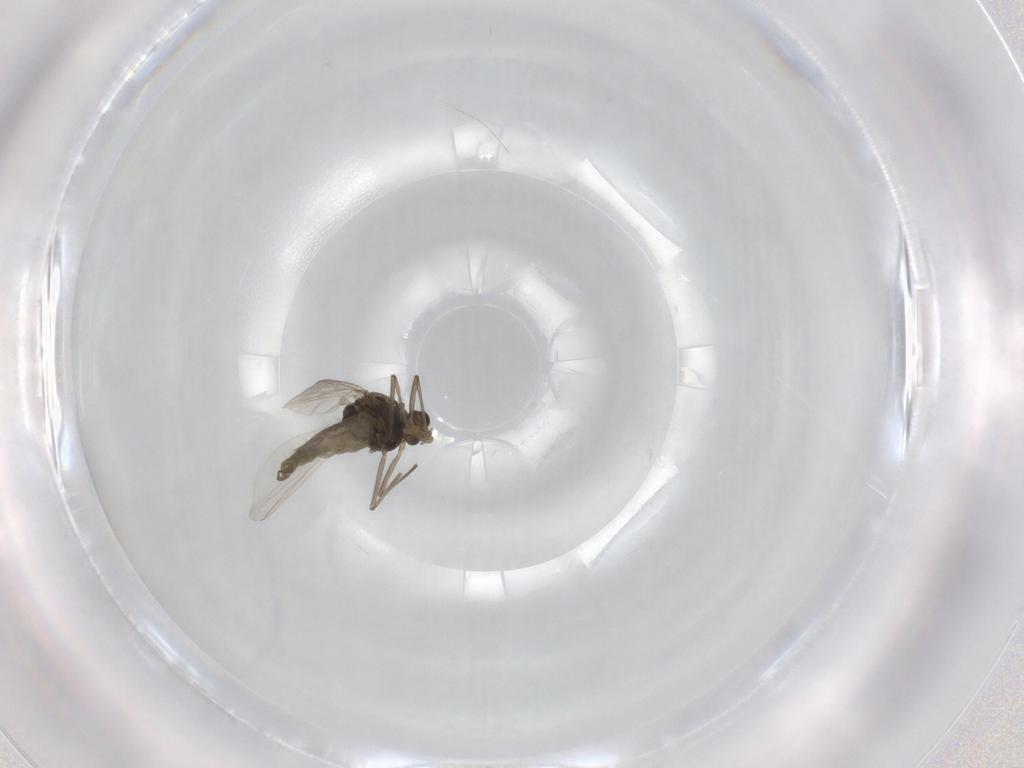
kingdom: Animalia
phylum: Arthropoda
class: Insecta
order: Diptera
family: Chironomidae
